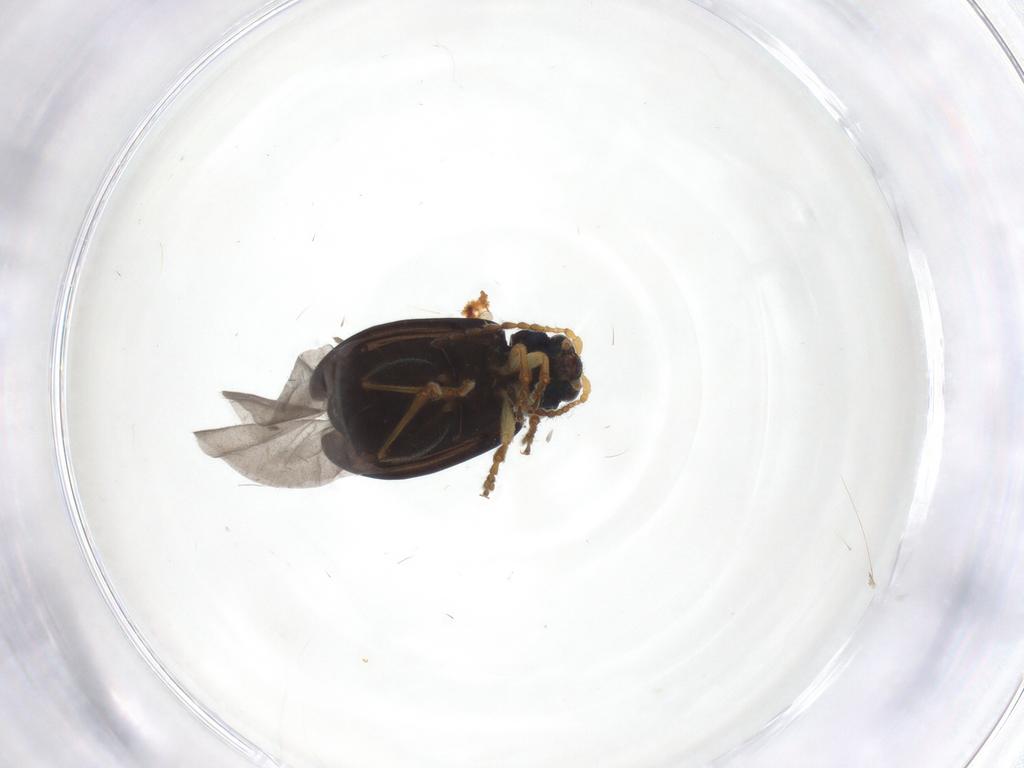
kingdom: Animalia
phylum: Arthropoda
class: Insecta
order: Coleoptera
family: Chrysomelidae
